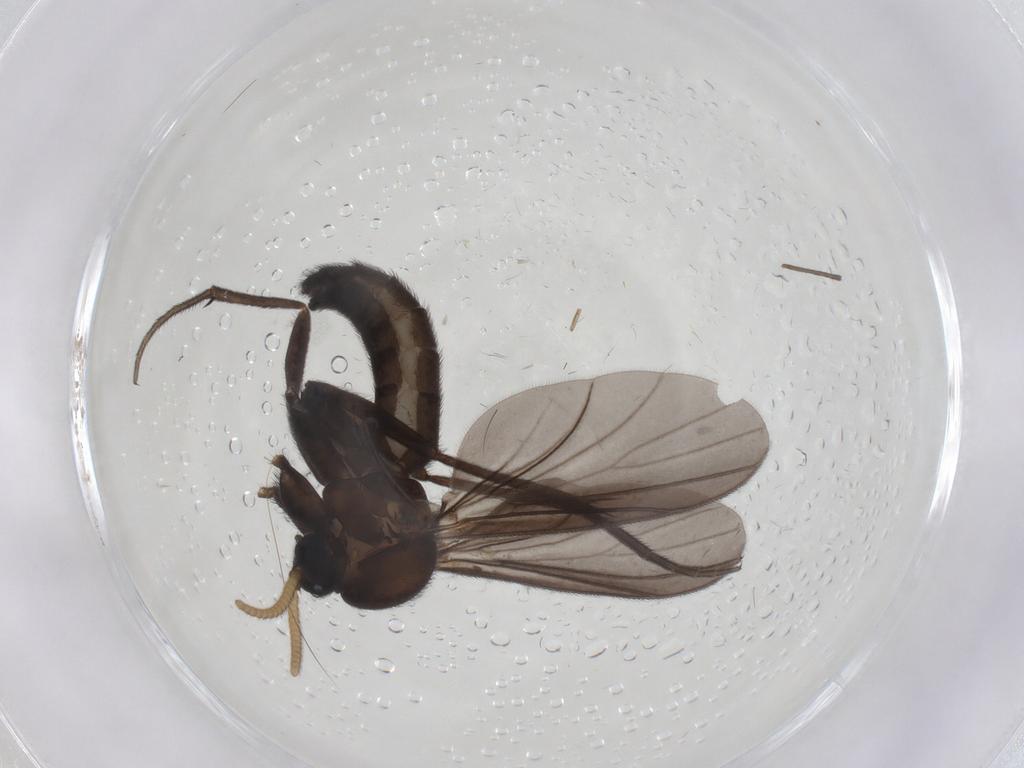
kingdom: Animalia
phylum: Arthropoda
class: Insecta
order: Diptera
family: Mycetophilidae
